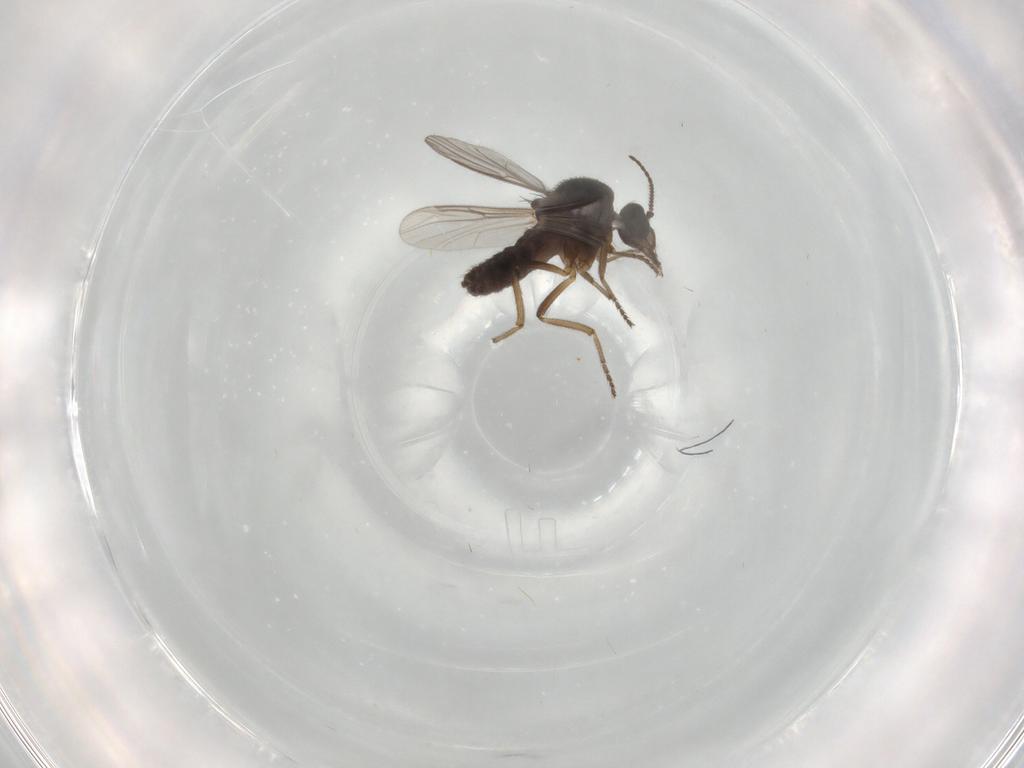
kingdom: Animalia
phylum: Arthropoda
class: Insecta
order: Diptera
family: Ceratopogonidae
